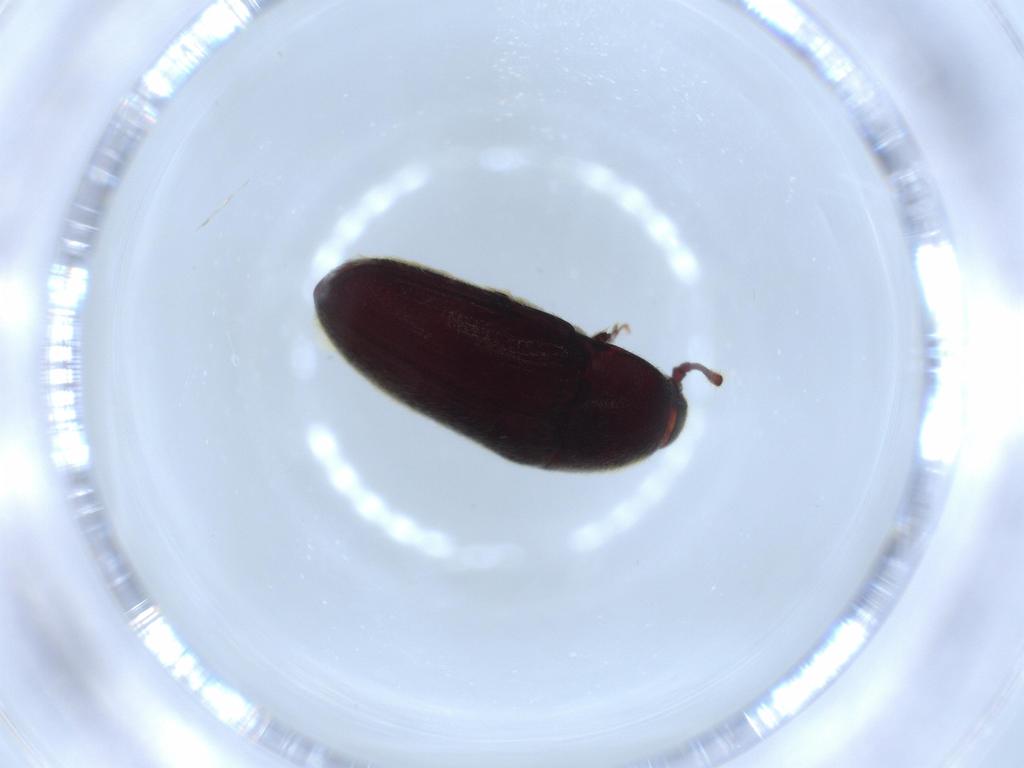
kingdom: Animalia
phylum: Arthropoda
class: Insecta
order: Coleoptera
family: Throscidae
